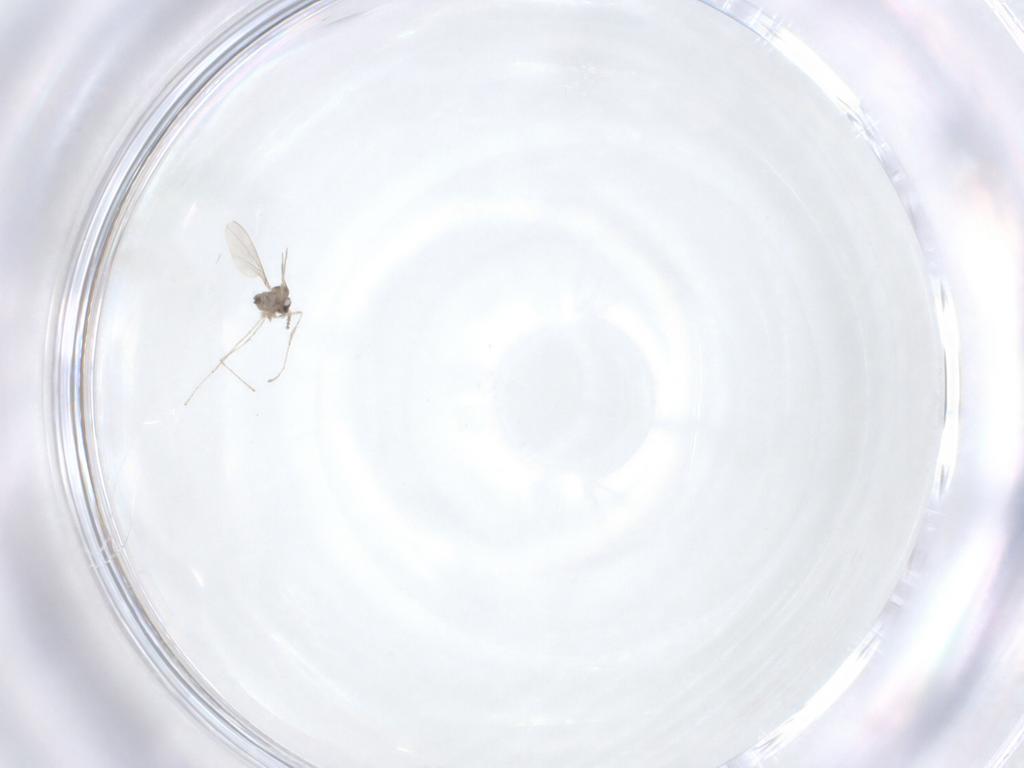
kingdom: Animalia
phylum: Arthropoda
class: Insecta
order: Diptera
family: Cecidomyiidae
